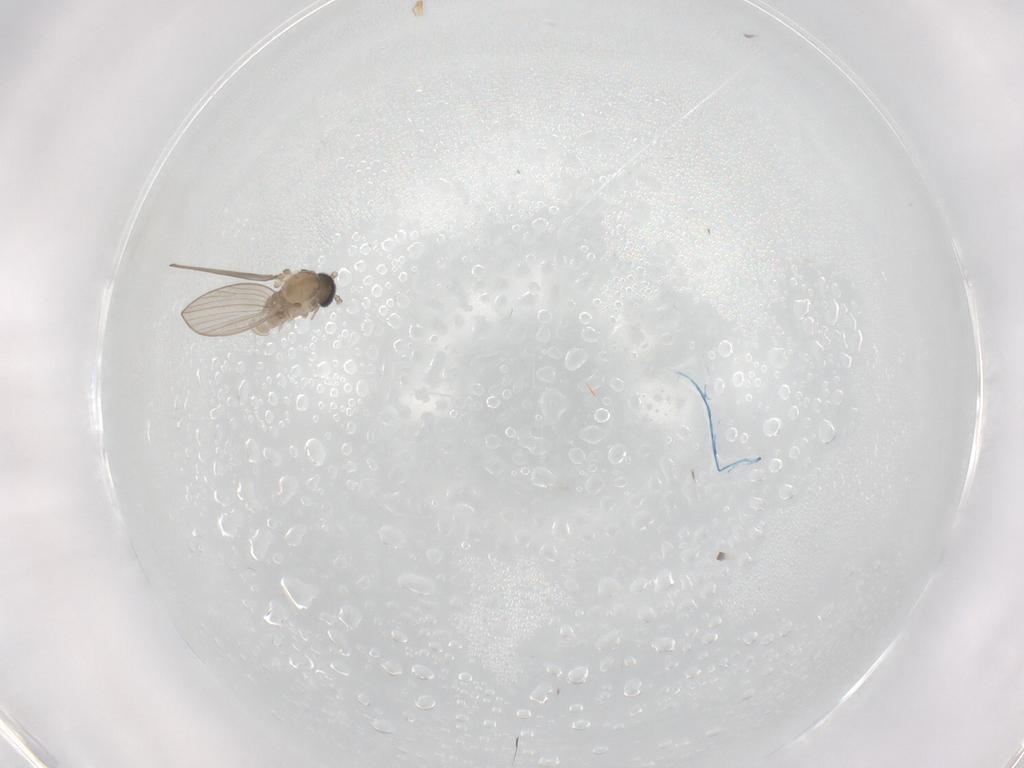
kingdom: Animalia
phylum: Arthropoda
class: Insecta
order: Diptera
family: Psychodidae
